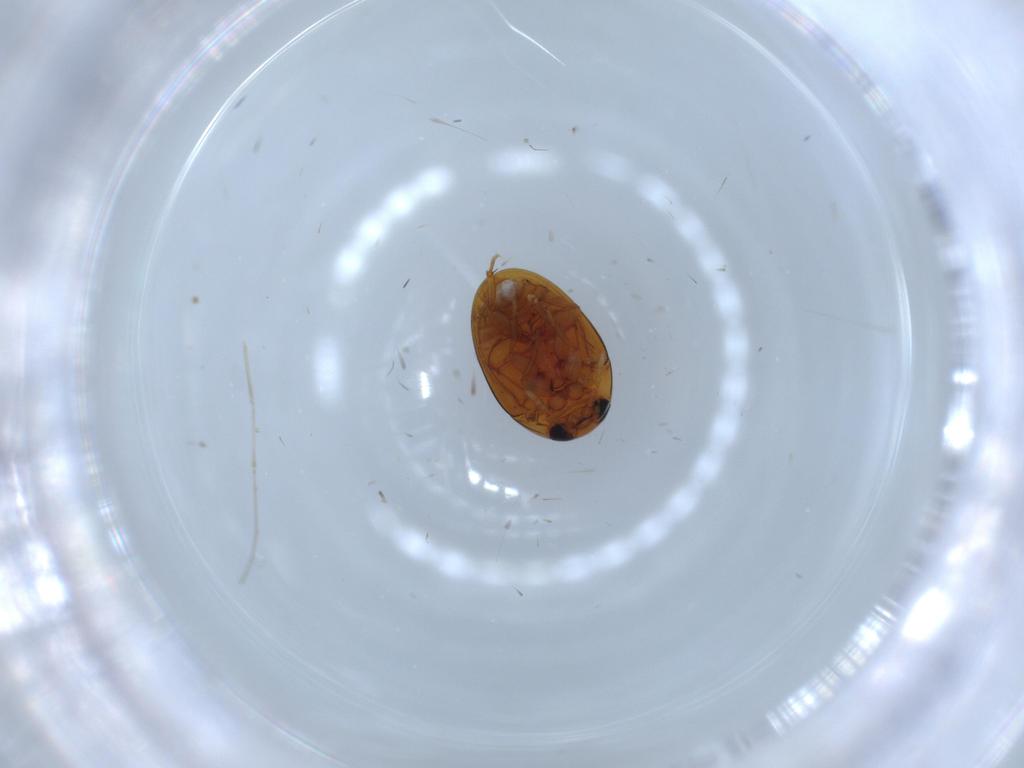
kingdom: Animalia
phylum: Arthropoda
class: Insecta
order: Coleoptera
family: Phalacridae
